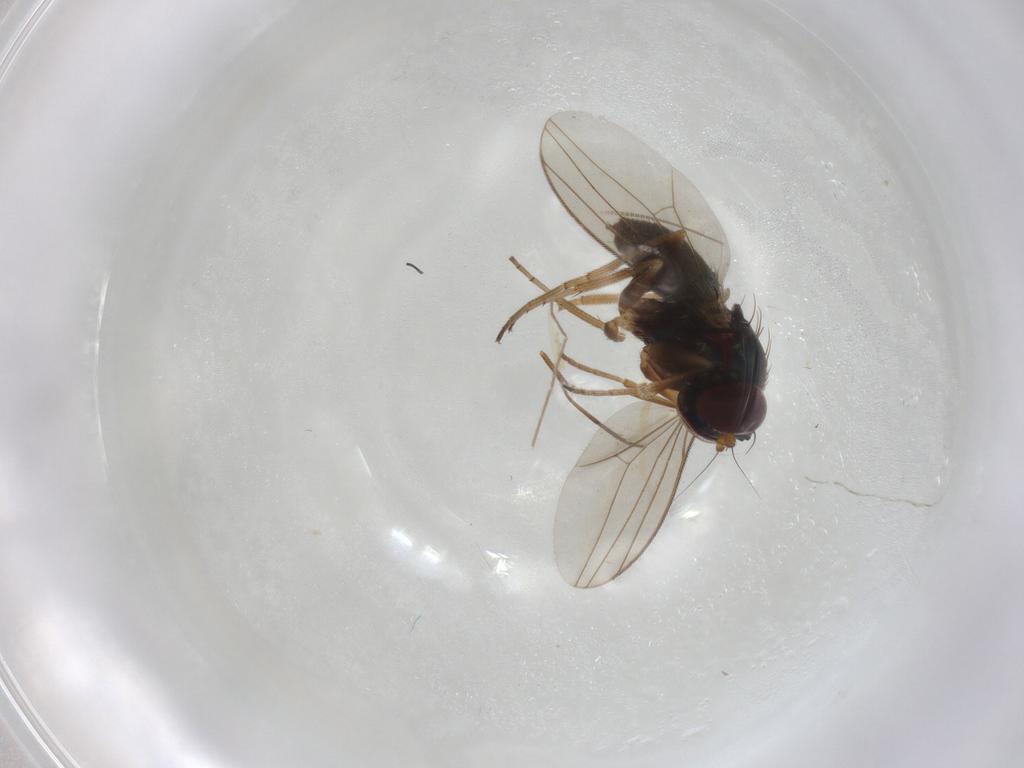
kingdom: Animalia
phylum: Arthropoda
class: Insecta
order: Diptera
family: Dolichopodidae
